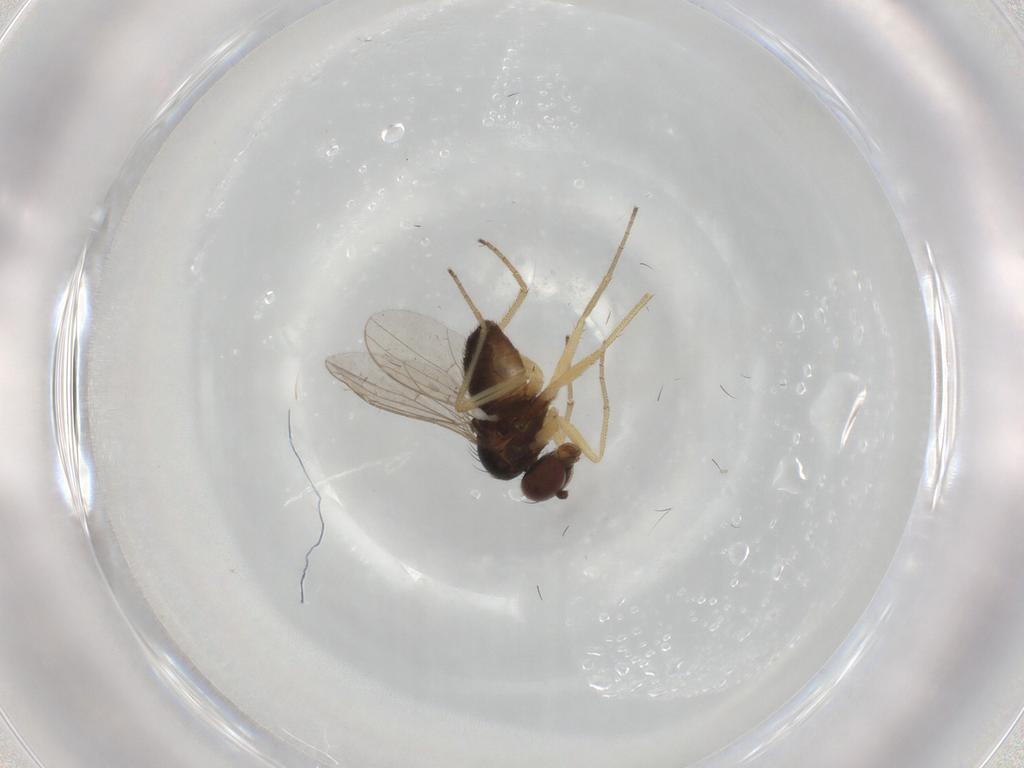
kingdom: Animalia
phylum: Arthropoda
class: Insecta
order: Diptera
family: Dolichopodidae
